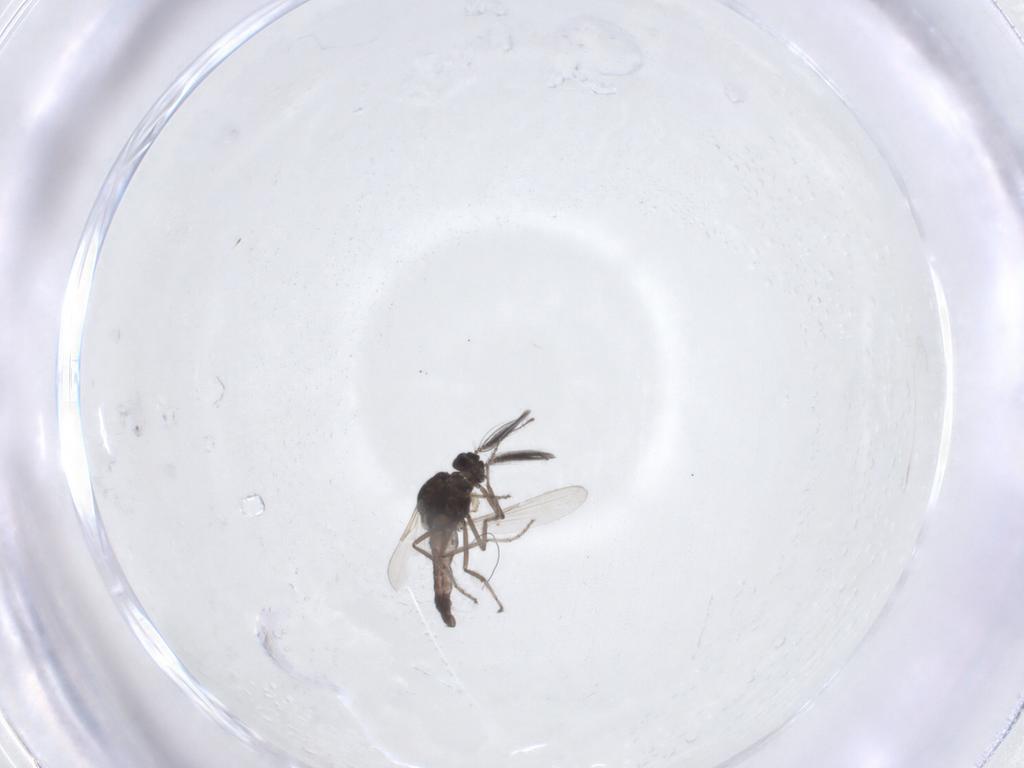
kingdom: Animalia
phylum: Arthropoda
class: Insecta
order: Diptera
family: Ceratopogonidae
